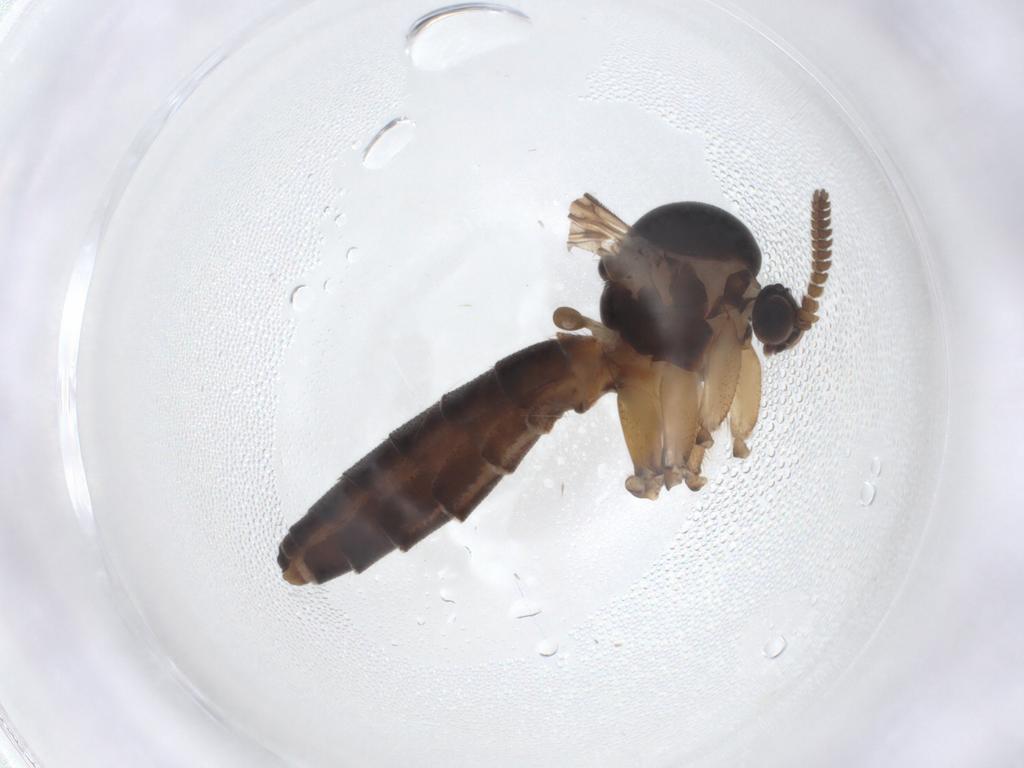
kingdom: Animalia
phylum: Arthropoda
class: Insecta
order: Diptera
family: Mycetophilidae
